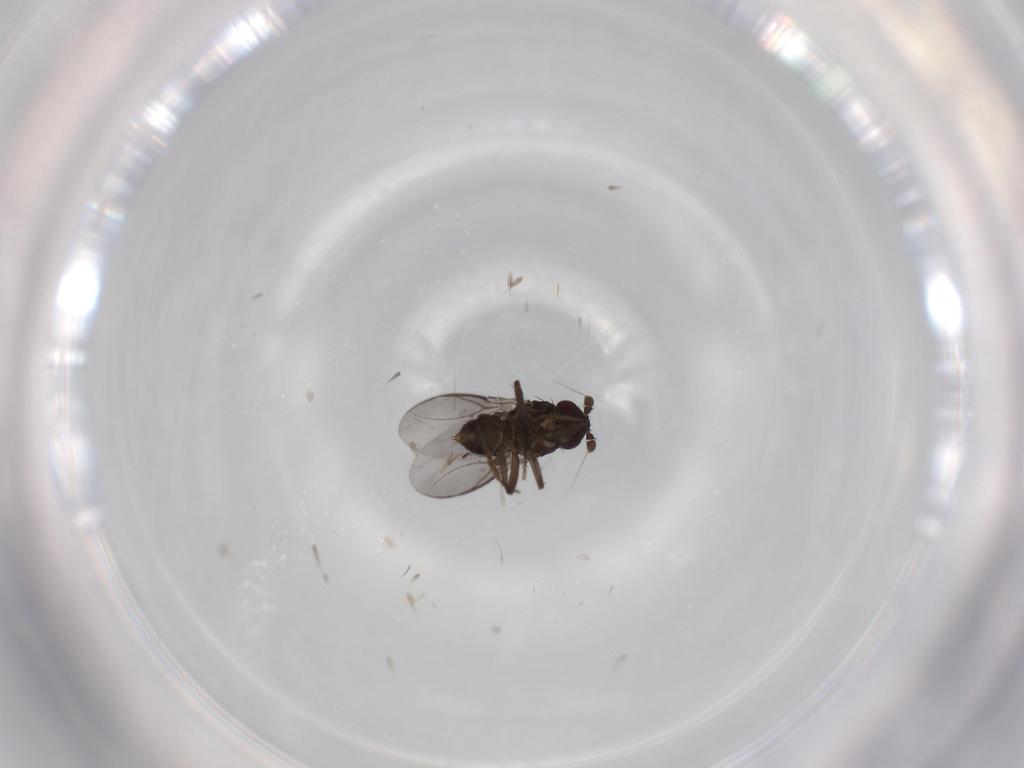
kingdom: Animalia
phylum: Arthropoda
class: Insecta
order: Diptera
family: Sphaeroceridae
